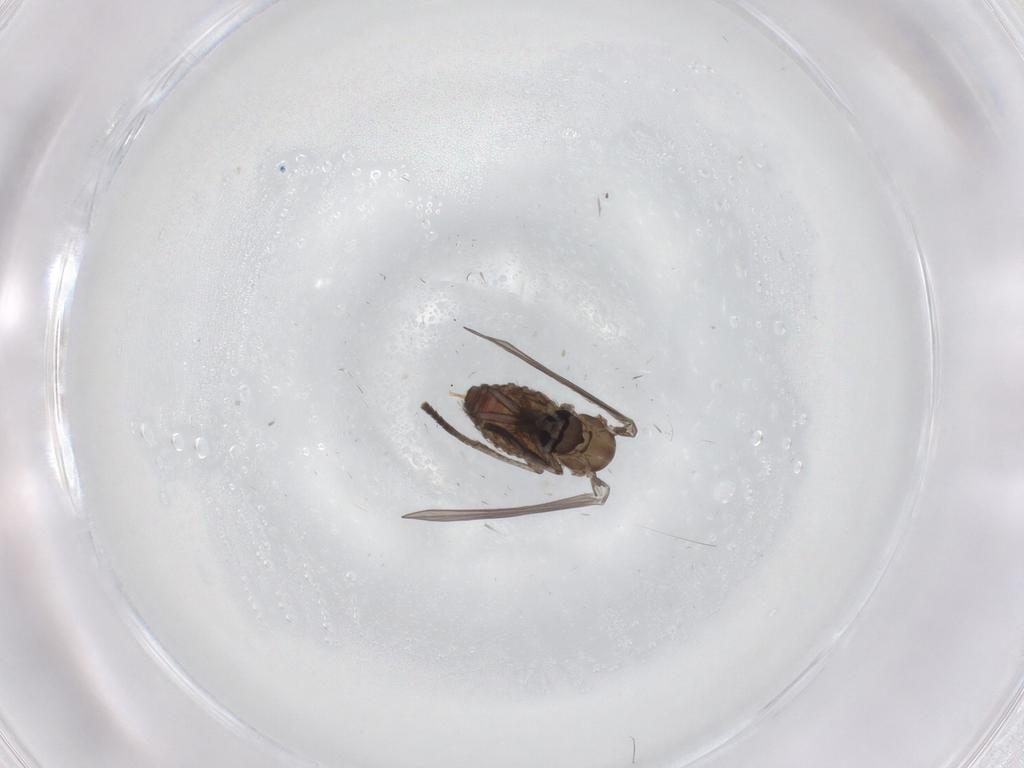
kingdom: Animalia
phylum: Arthropoda
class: Insecta
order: Diptera
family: Psychodidae
